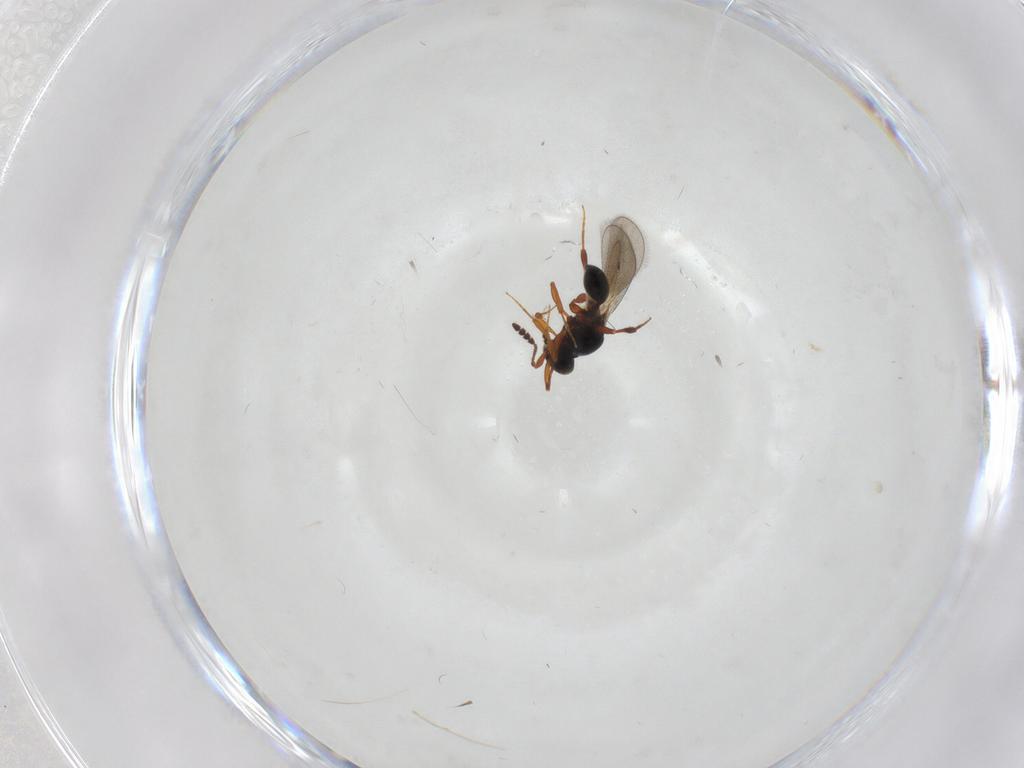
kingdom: Animalia
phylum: Arthropoda
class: Insecta
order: Hymenoptera
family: Platygastridae
